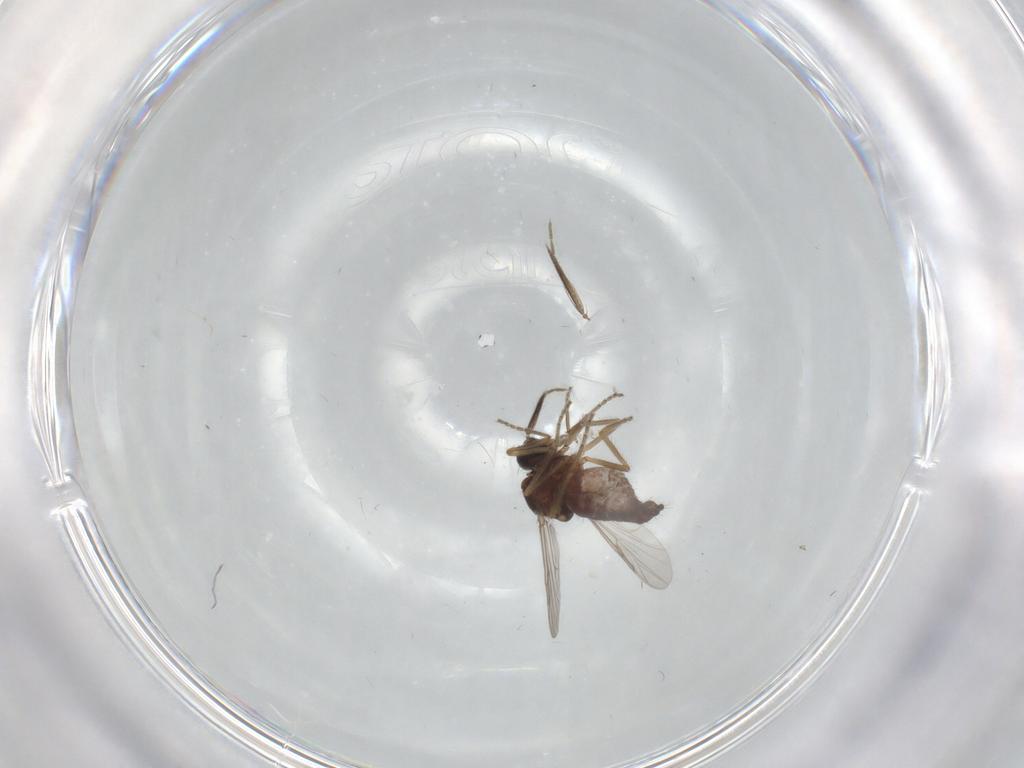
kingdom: Animalia
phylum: Arthropoda
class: Insecta
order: Diptera
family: Ceratopogonidae
